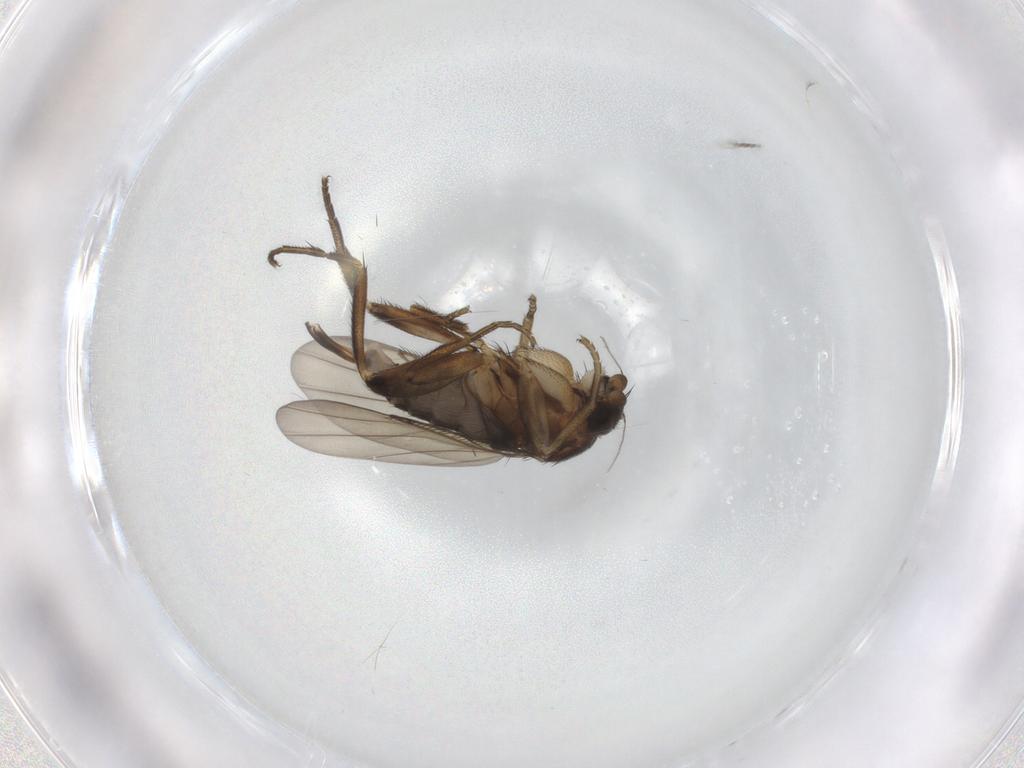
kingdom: Animalia
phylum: Arthropoda
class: Insecta
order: Diptera
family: Phoridae
